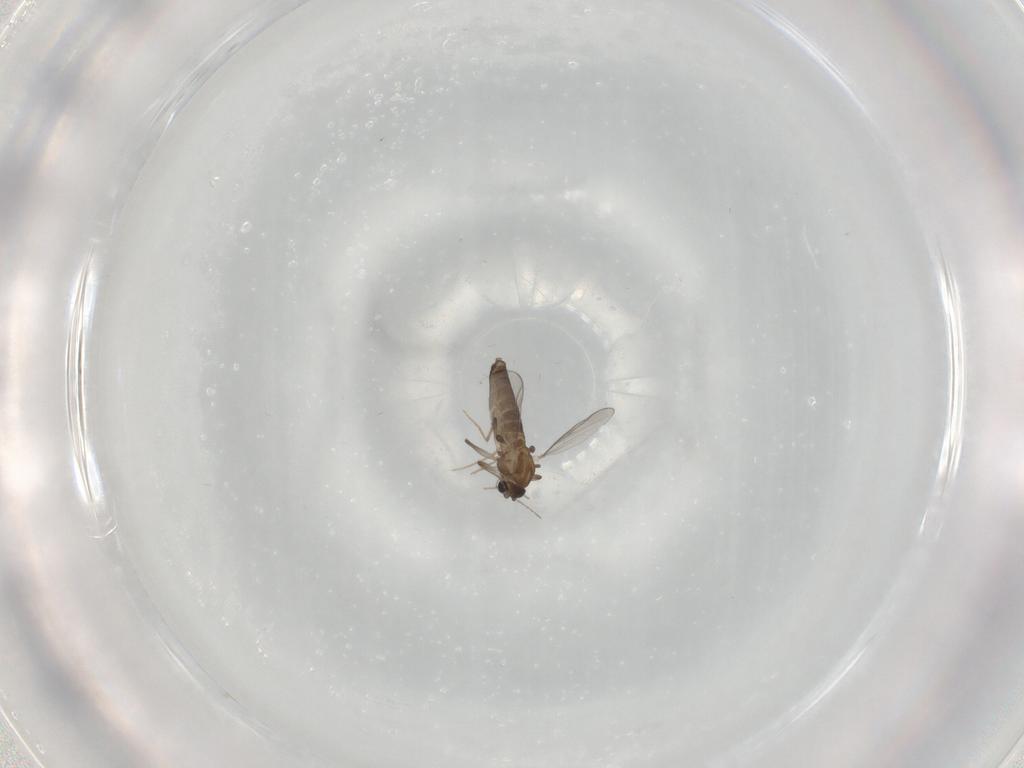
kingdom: Animalia
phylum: Arthropoda
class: Insecta
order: Diptera
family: Chironomidae
